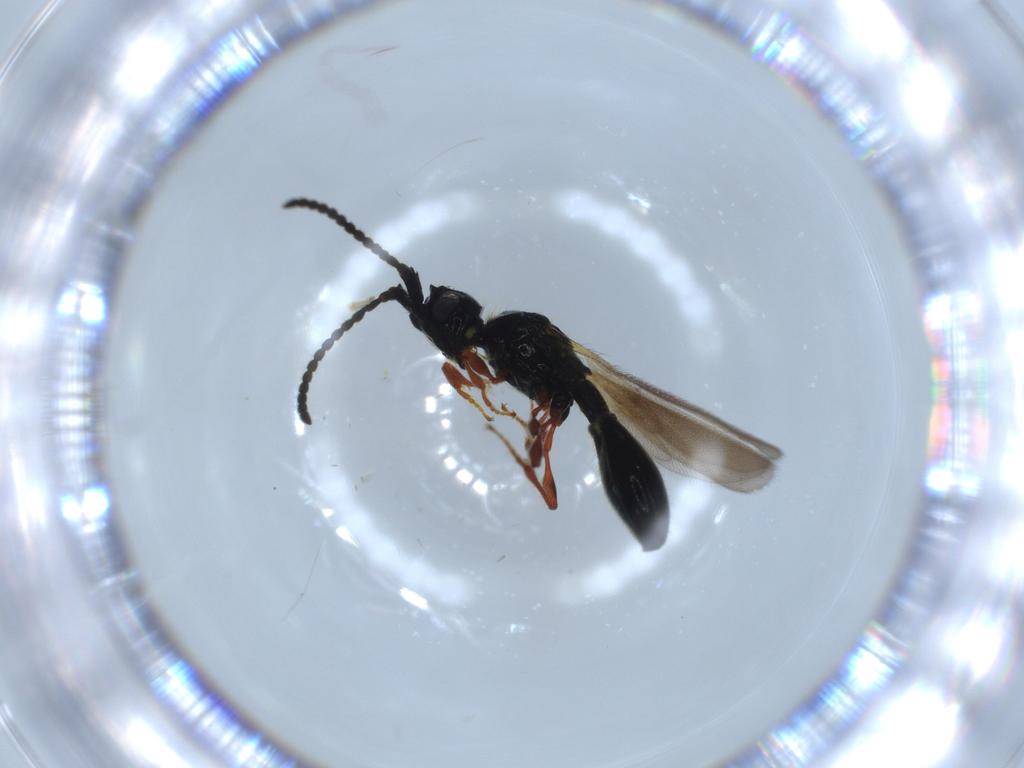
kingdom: Animalia
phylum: Arthropoda
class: Insecta
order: Hymenoptera
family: Diapriidae
